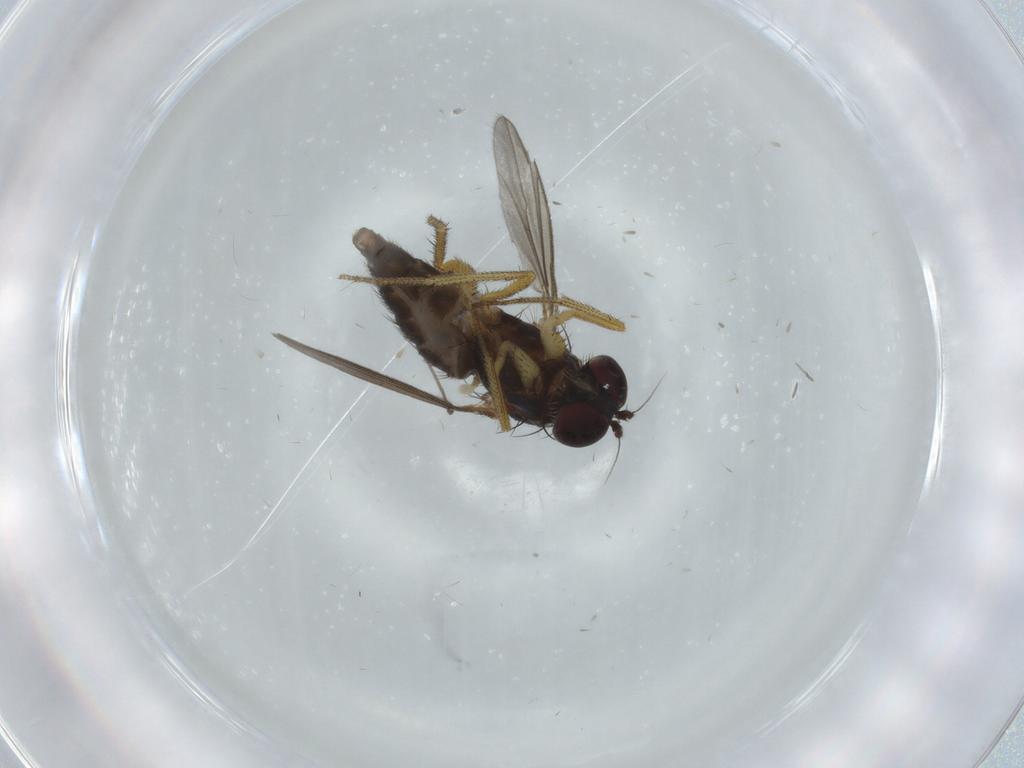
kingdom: Animalia
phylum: Arthropoda
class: Insecta
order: Diptera
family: Dolichopodidae
